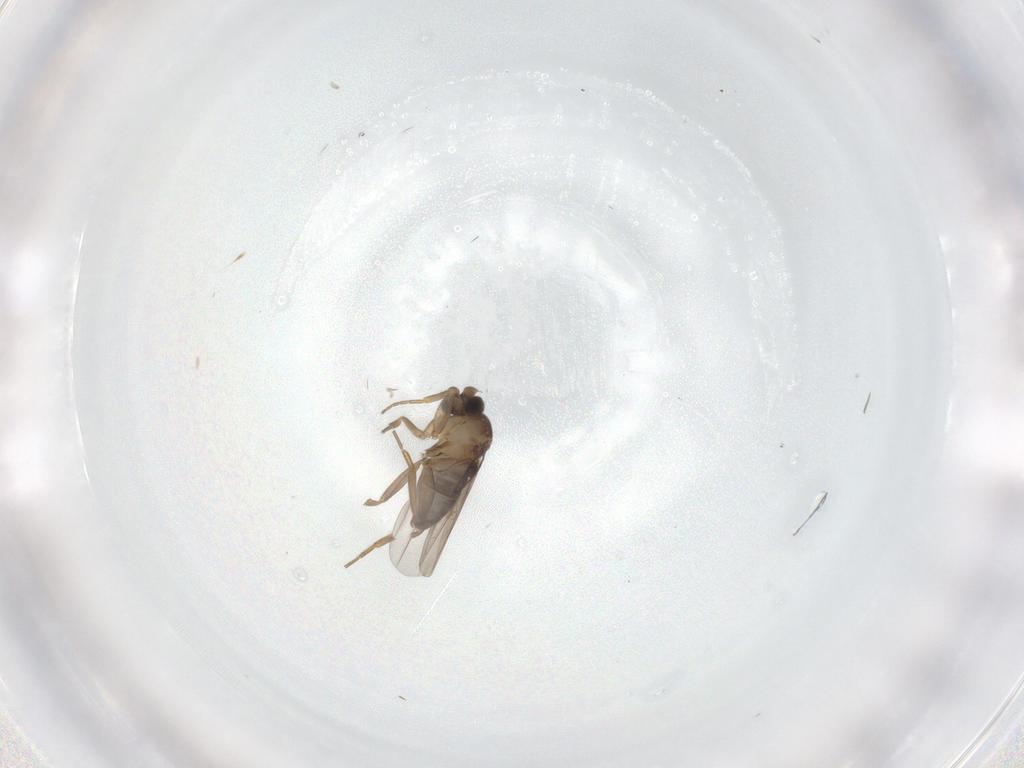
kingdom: Animalia
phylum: Arthropoda
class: Insecta
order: Diptera
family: Phoridae
